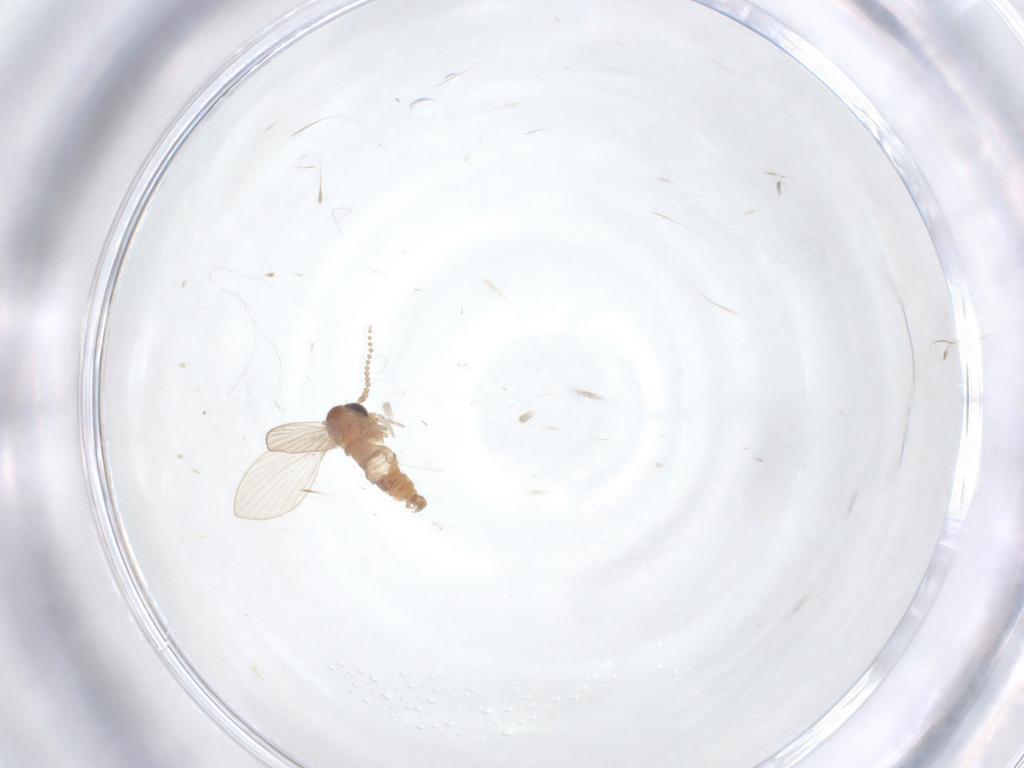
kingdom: Animalia
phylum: Arthropoda
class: Insecta
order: Diptera
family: Psychodidae
